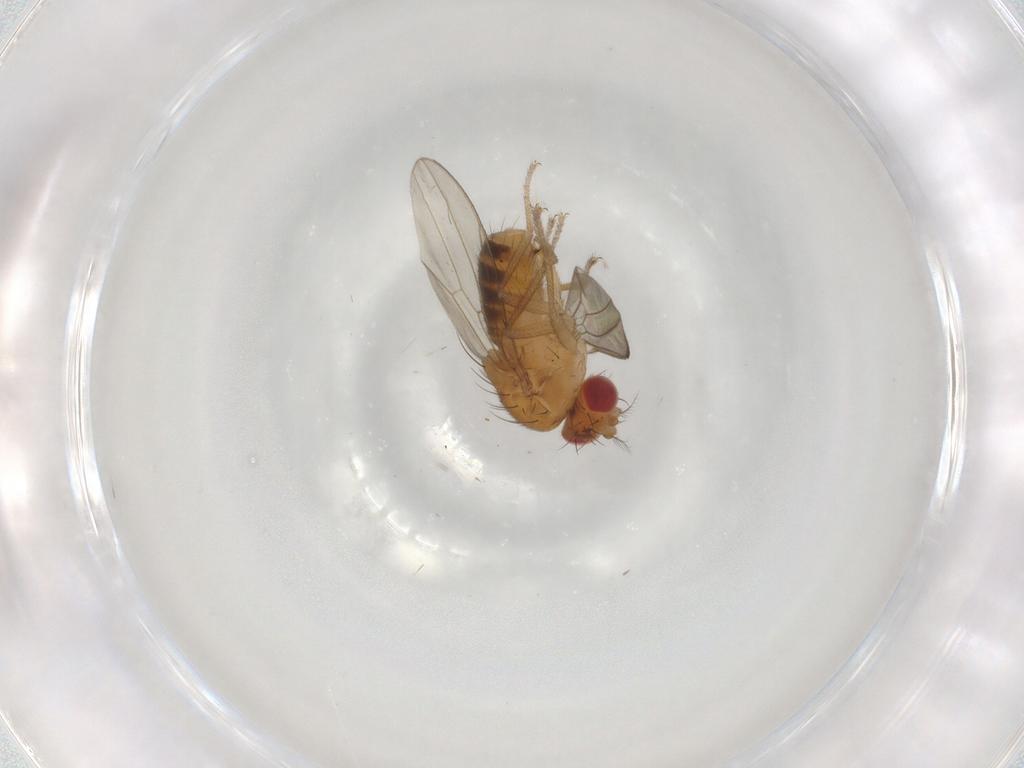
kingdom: Animalia
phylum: Arthropoda
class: Insecta
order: Diptera
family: Drosophilidae
